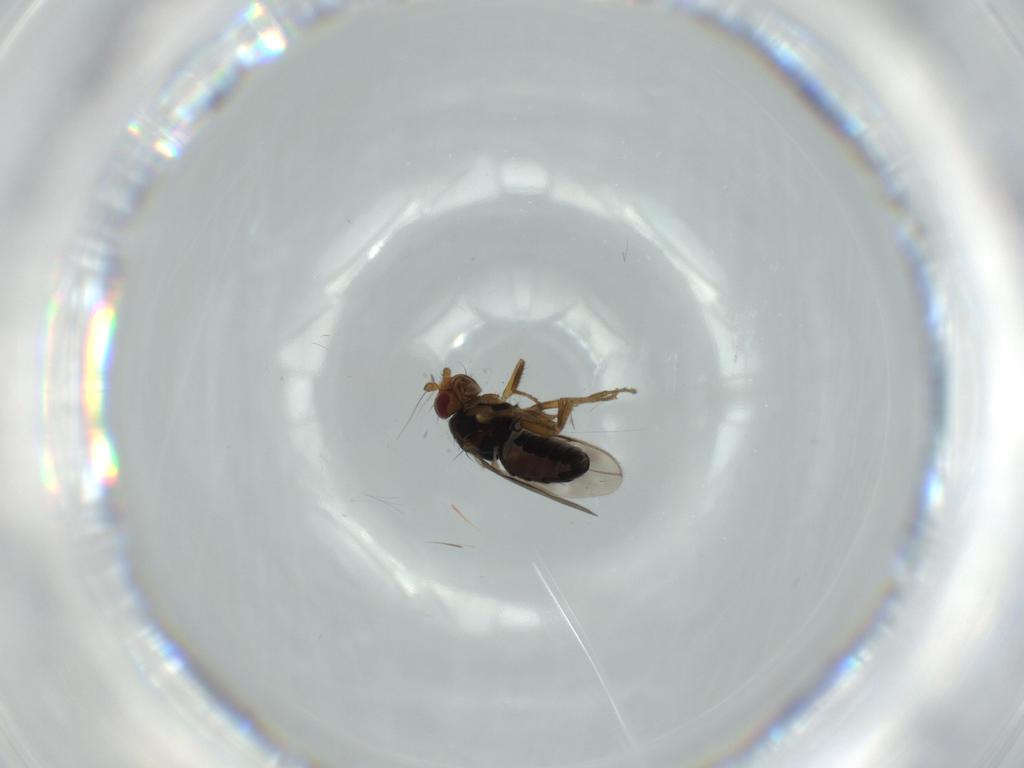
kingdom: Animalia
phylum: Arthropoda
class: Insecta
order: Diptera
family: Sphaeroceridae
